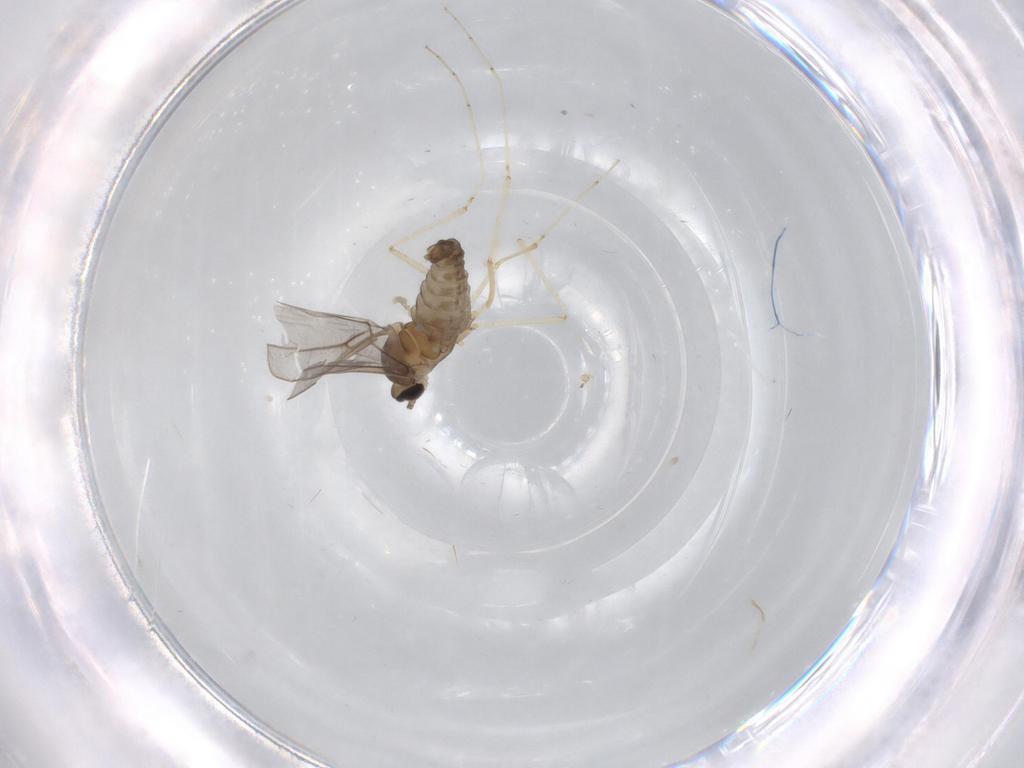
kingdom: Animalia
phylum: Arthropoda
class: Insecta
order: Diptera
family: Cecidomyiidae
